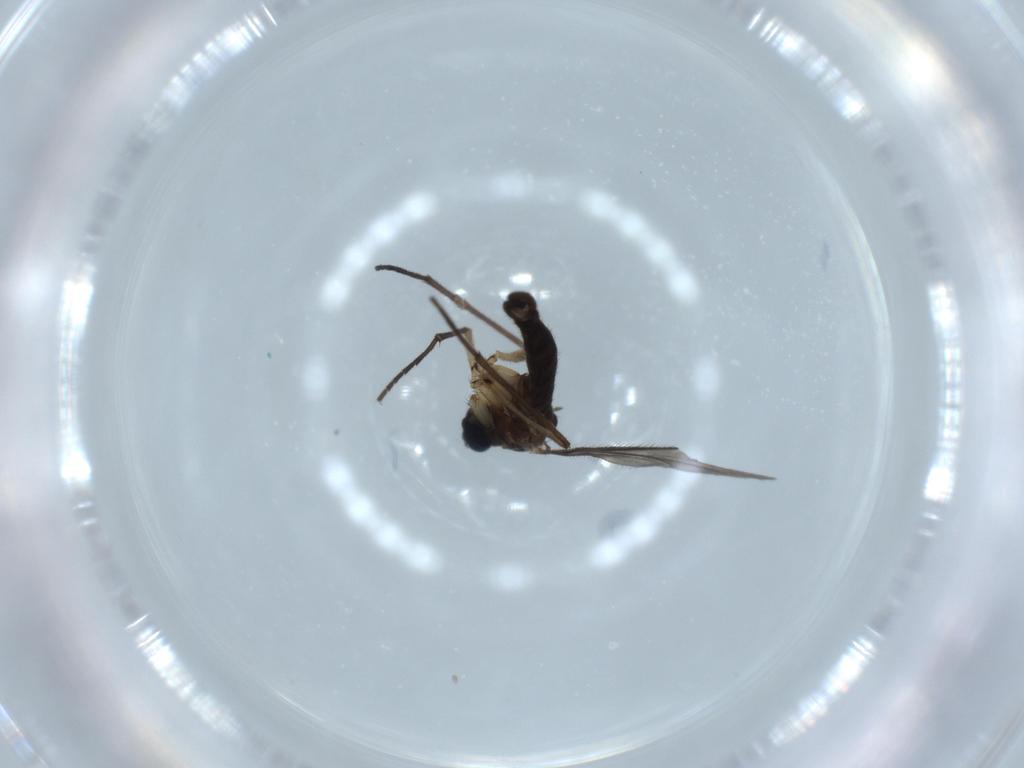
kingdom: Animalia
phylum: Arthropoda
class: Insecta
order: Diptera
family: Sciaridae
